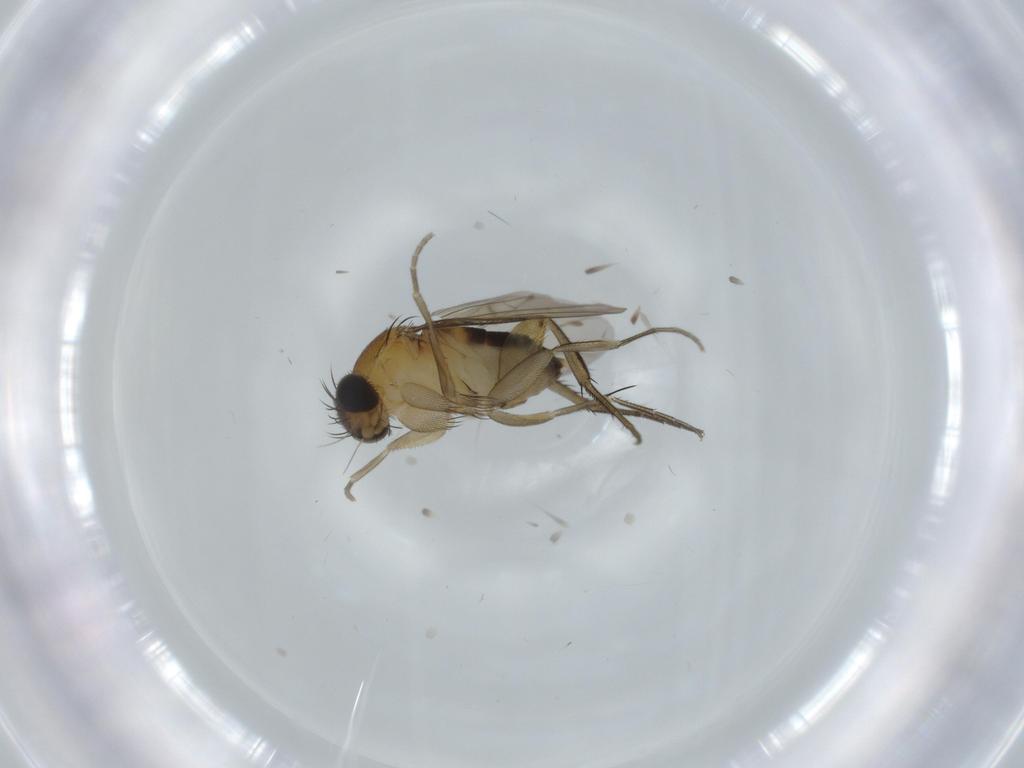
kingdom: Animalia
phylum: Arthropoda
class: Insecta
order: Diptera
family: Phoridae
